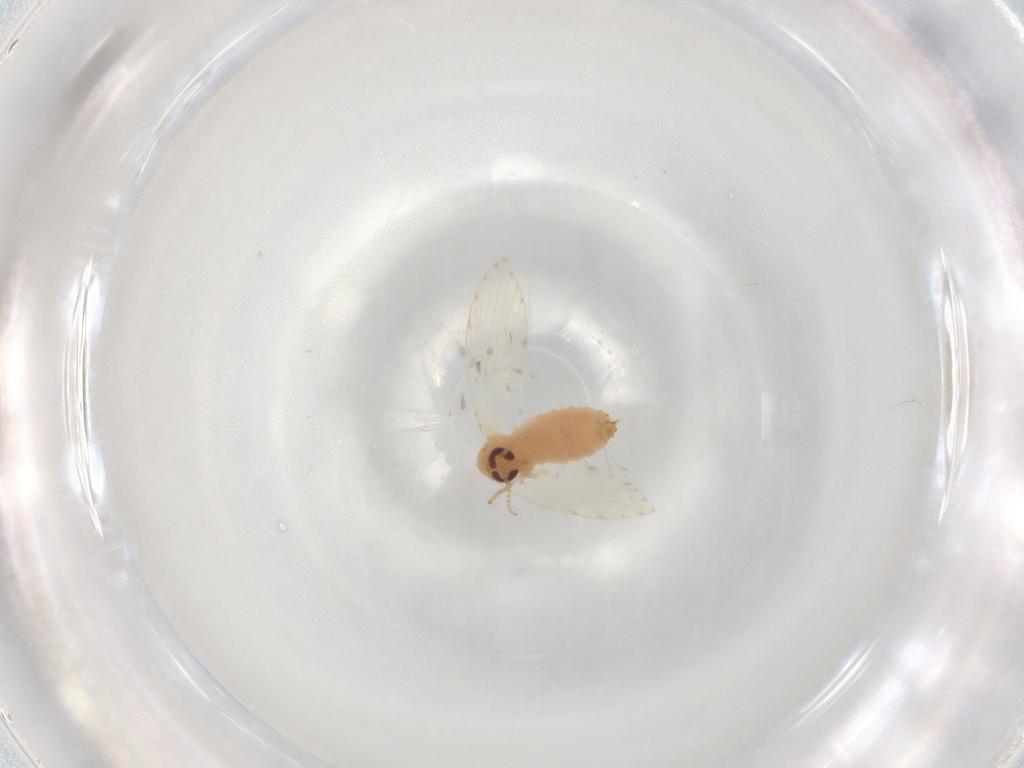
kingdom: Animalia
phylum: Arthropoda
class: Insecta
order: Diptera
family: Psychodidae
